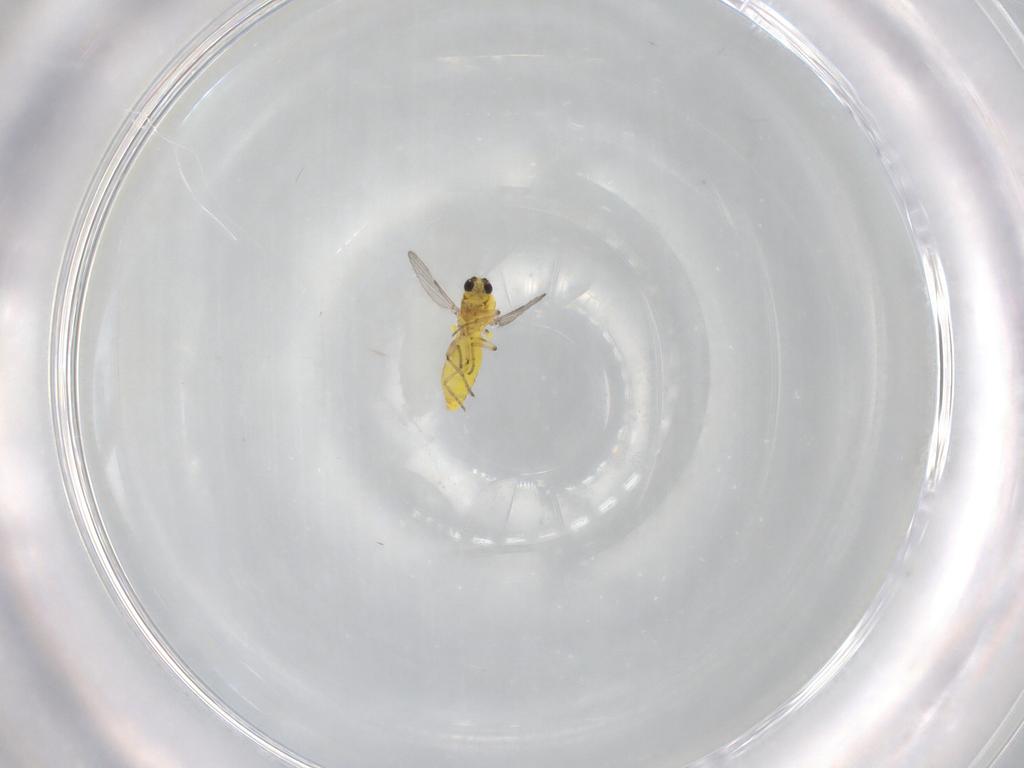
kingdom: Animalia
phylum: Arthropoda
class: Insecta
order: Diptera
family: Ceratopogonidae
